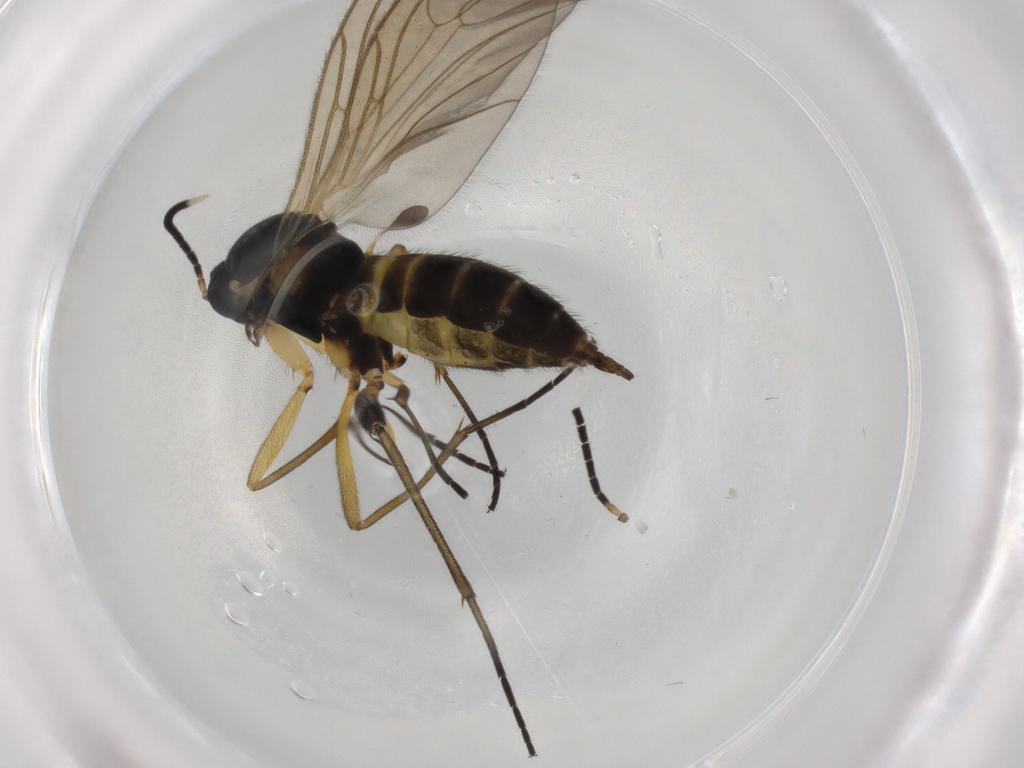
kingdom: Animalia
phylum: Arthropoda
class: Insecta
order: Diptera
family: Sciaridae
